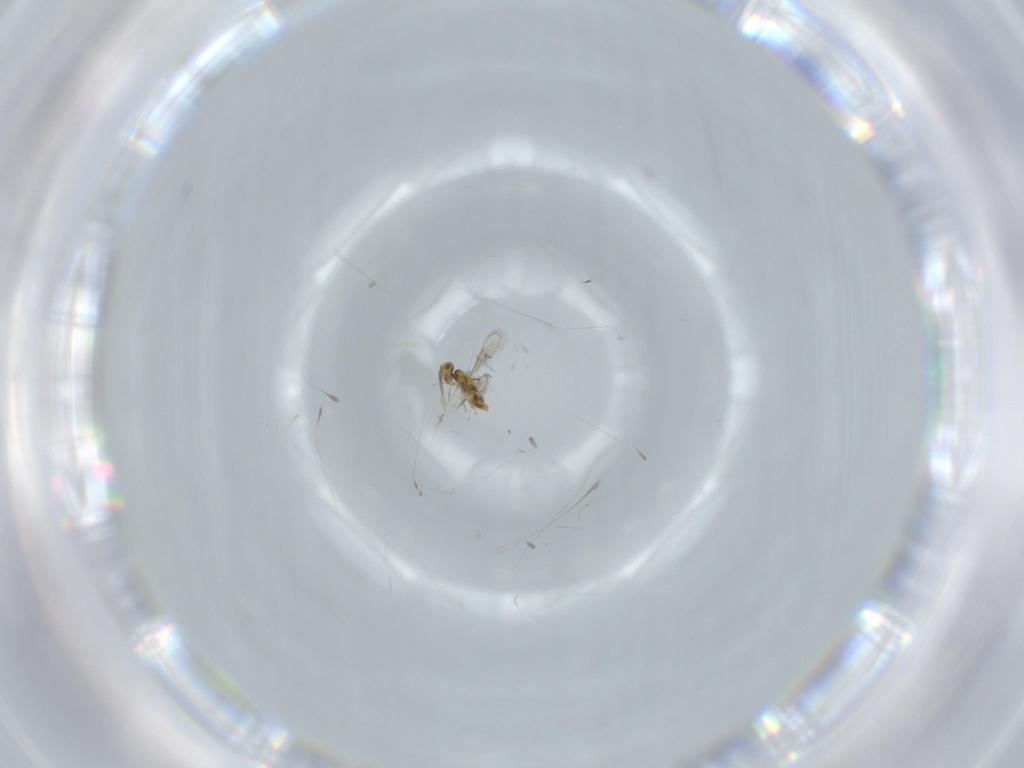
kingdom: Animalia
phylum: Arthropoda
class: Insecta
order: Hymenoptera
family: Aphelinidae
